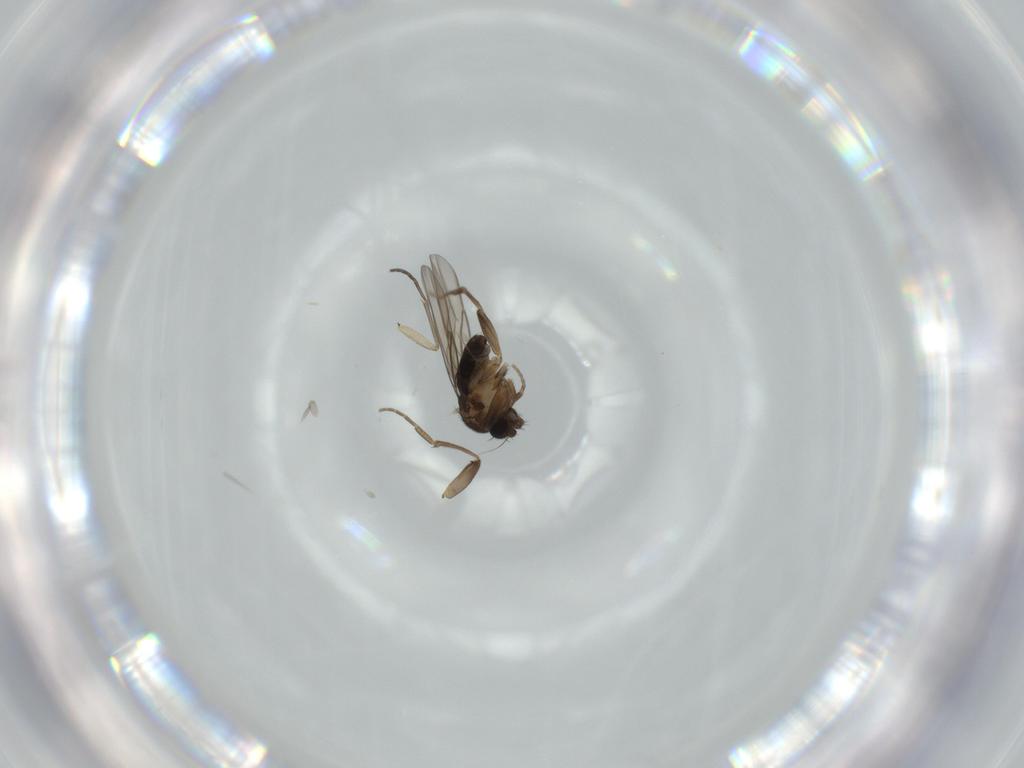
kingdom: Animalia
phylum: Arthropoda
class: Insecta
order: Diptera
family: Phoridae
